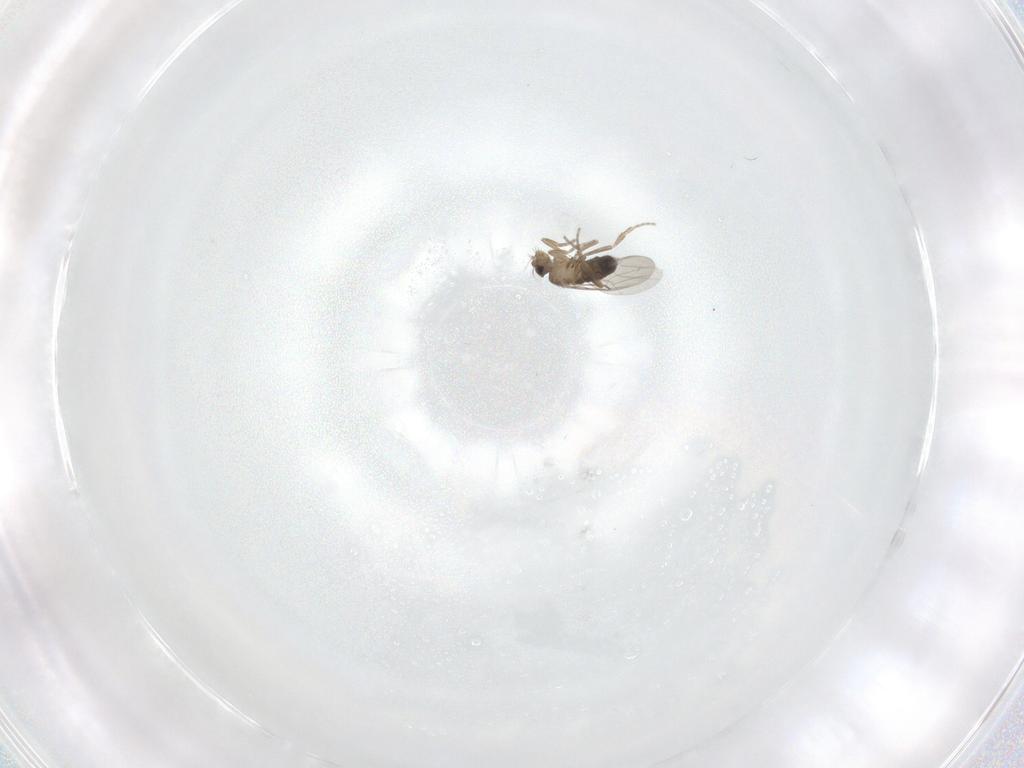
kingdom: Animalia
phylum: Arthropoda
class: Insecta
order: Diptera
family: Phoridae
